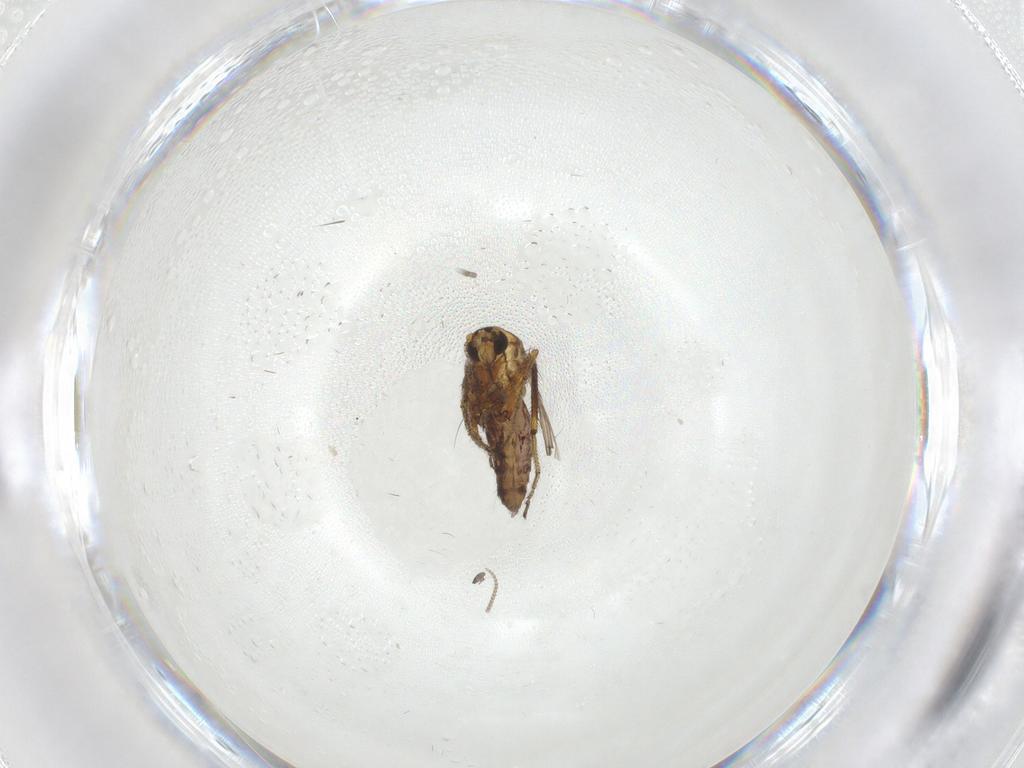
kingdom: Animalia
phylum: Arthropoda
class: Insecta
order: Diptera
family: Ceratopogonidae
